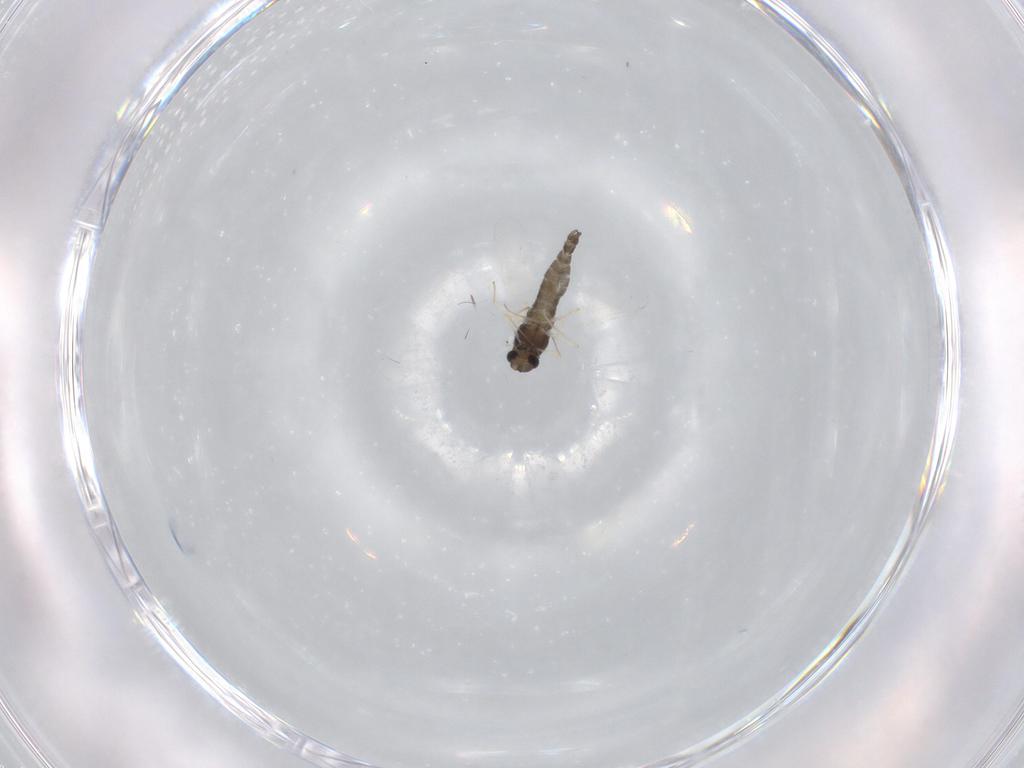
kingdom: Animalia
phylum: Arthropoda
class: Insecta
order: Diptera
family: Chironomidae
